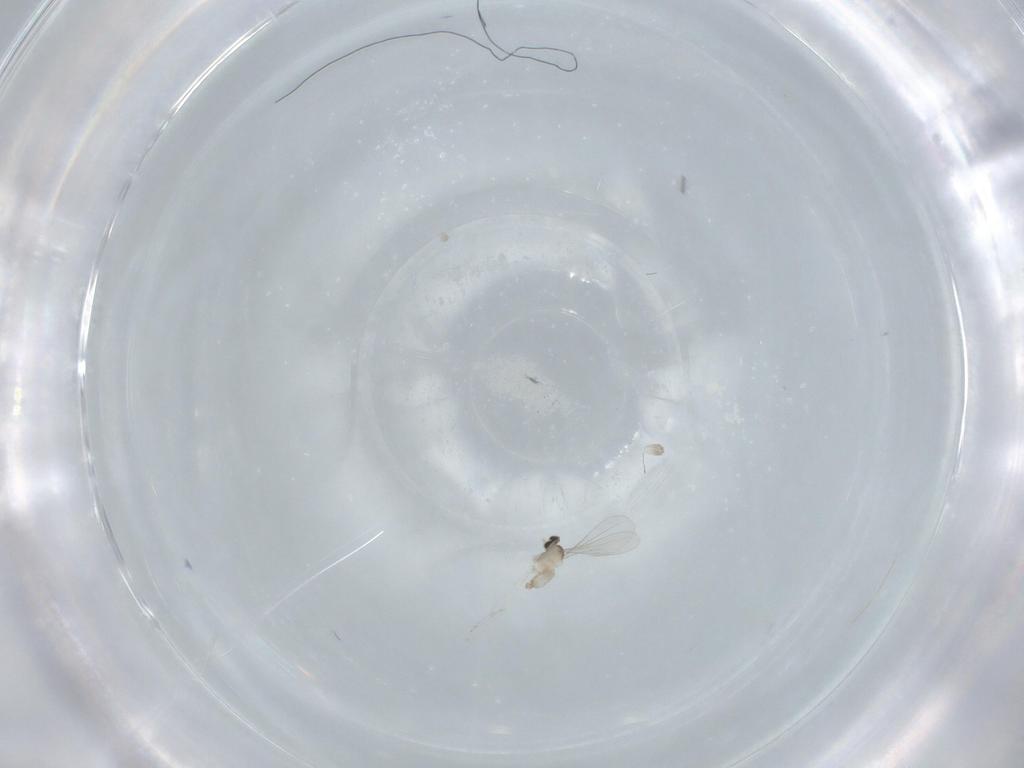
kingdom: Animalia
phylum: Arthropoda
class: Insecta
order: Diptera
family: Cecidomyiidae
